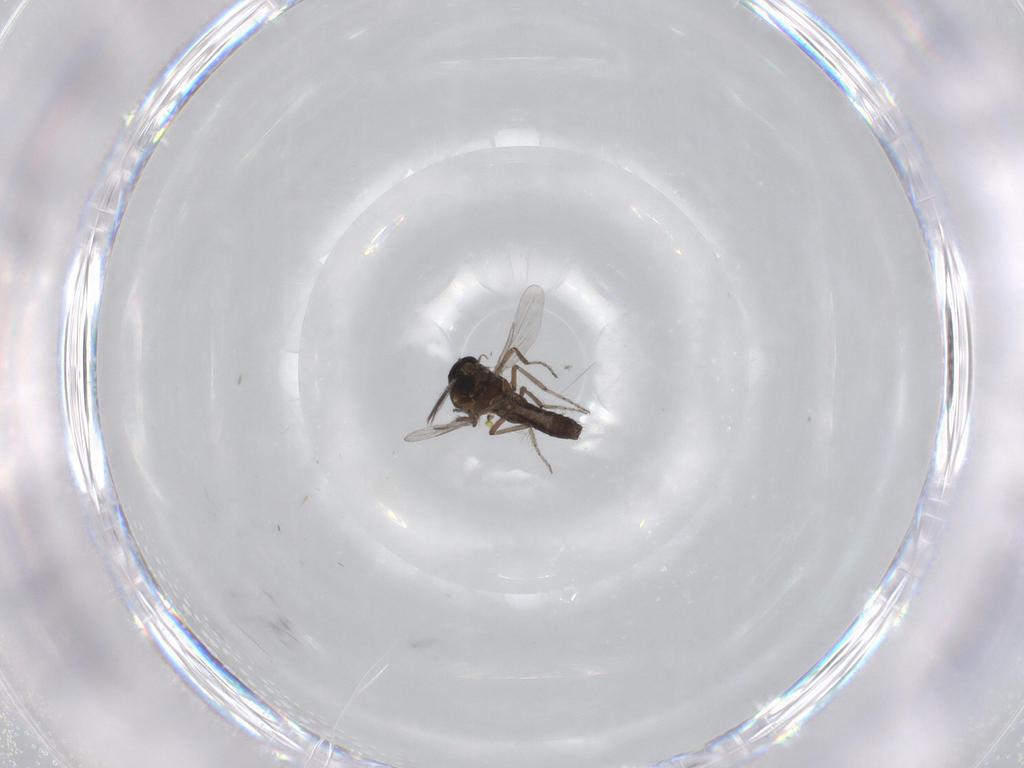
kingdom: Animalia
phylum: Arthropoda
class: Insecta
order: Diptera
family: Ceratopogonidae
